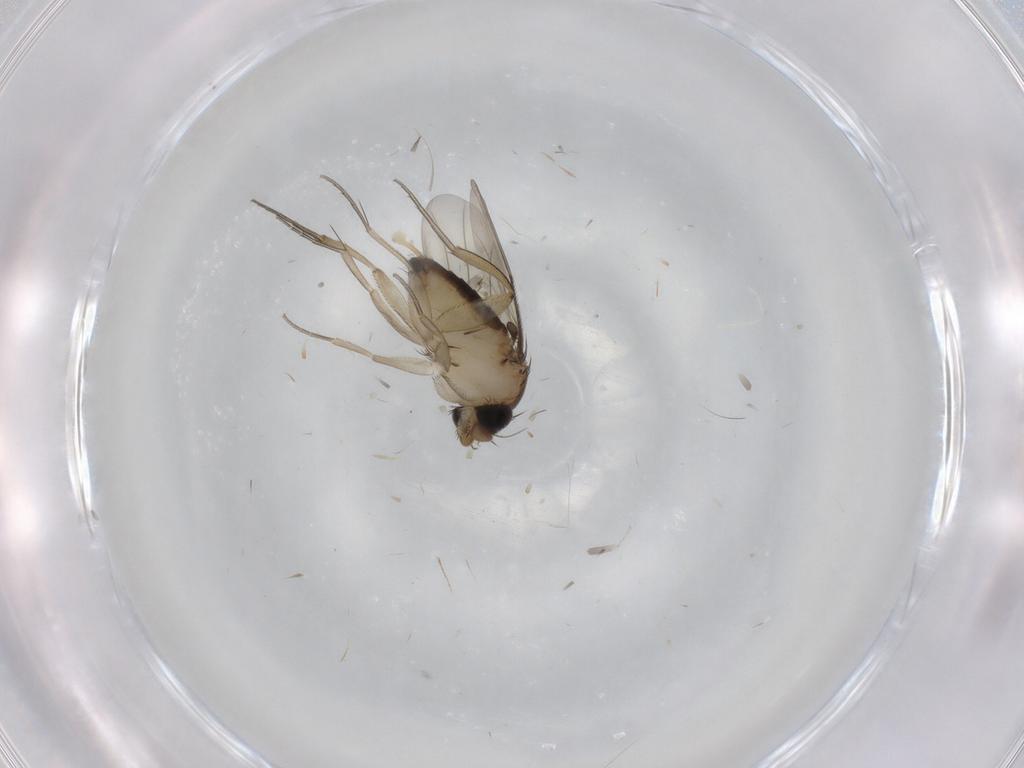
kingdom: Animalia
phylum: Arthropoda
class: Insecta
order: Diptera
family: Phoridae
